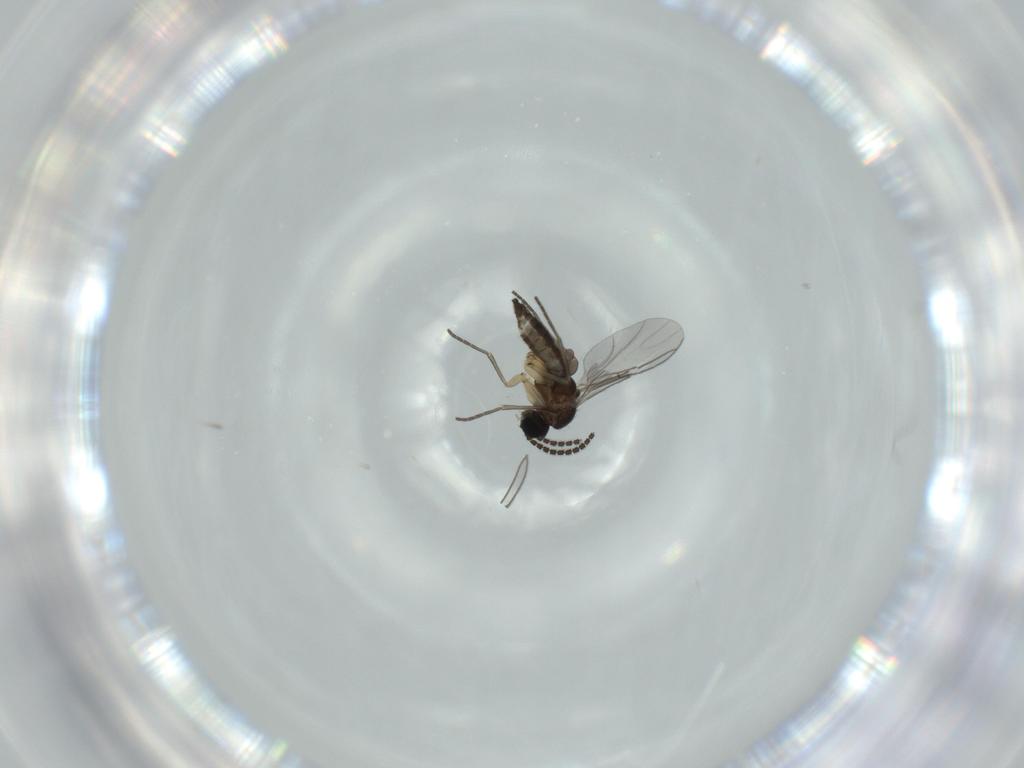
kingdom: Animalia
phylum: Arthropoda
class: Insecta
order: Diptera
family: Sciaridae
